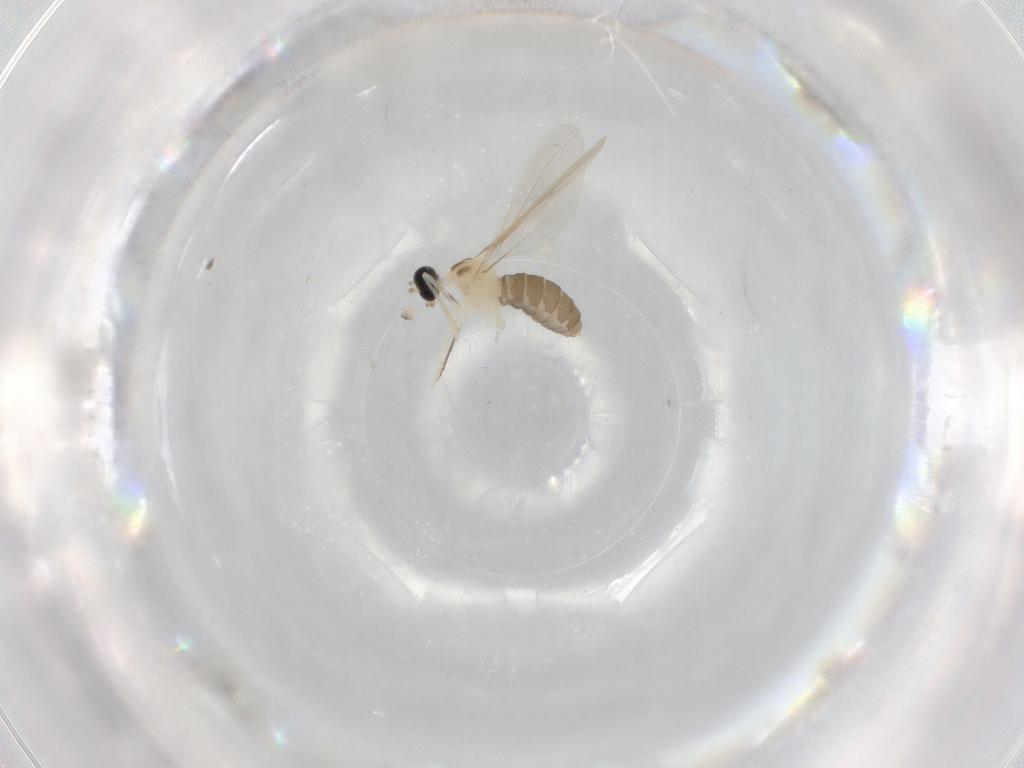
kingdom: Animalia
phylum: Arthropoda
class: Insecta
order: Diptera
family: Cecidomyiidae
